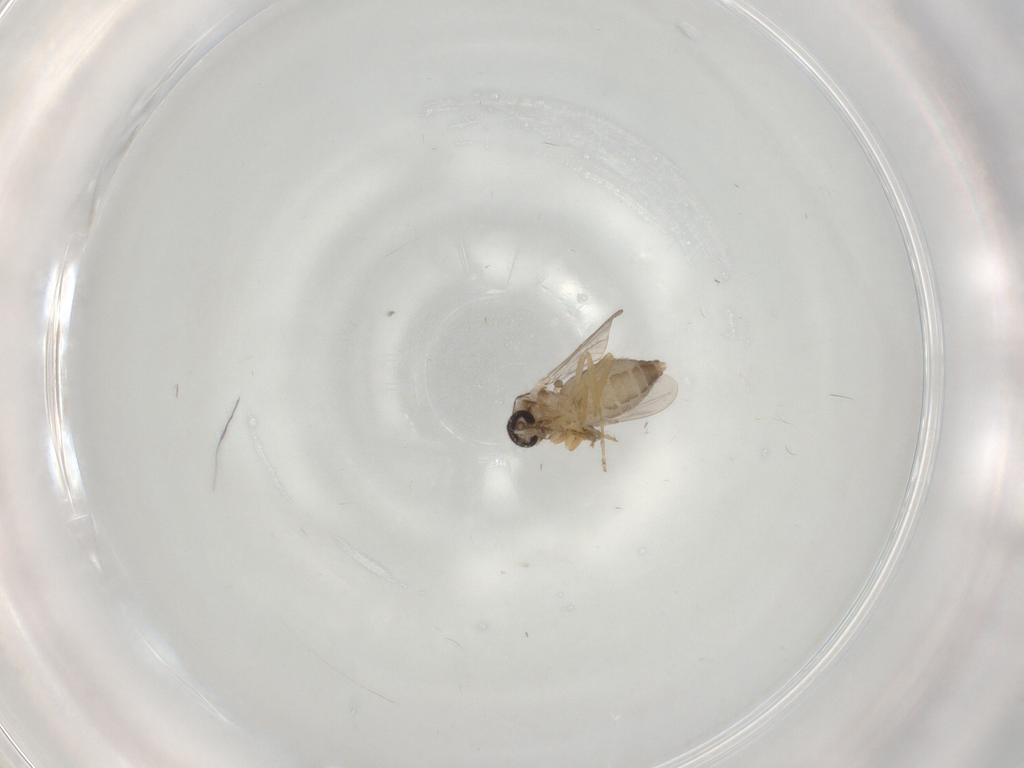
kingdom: Animalia
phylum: Arthropoda
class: Insecta
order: Diptera
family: Ceratopogonidae
